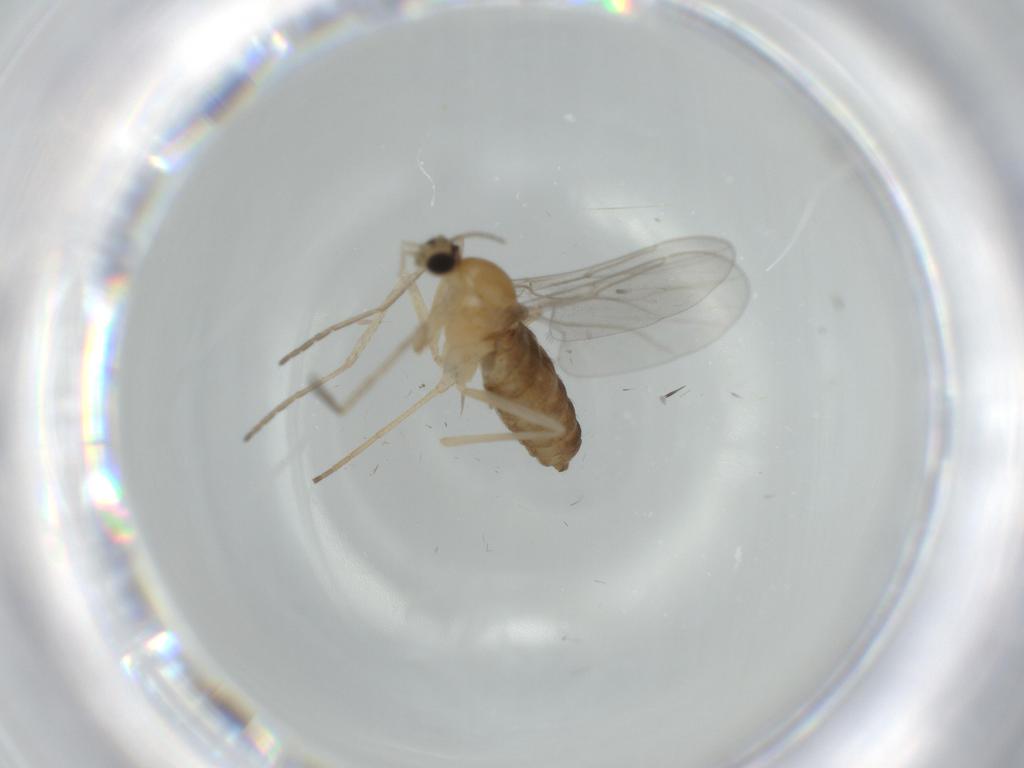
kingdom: Animalia
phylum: Arthropoda
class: Insecta
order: Diptera
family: Cecidomyiidae
